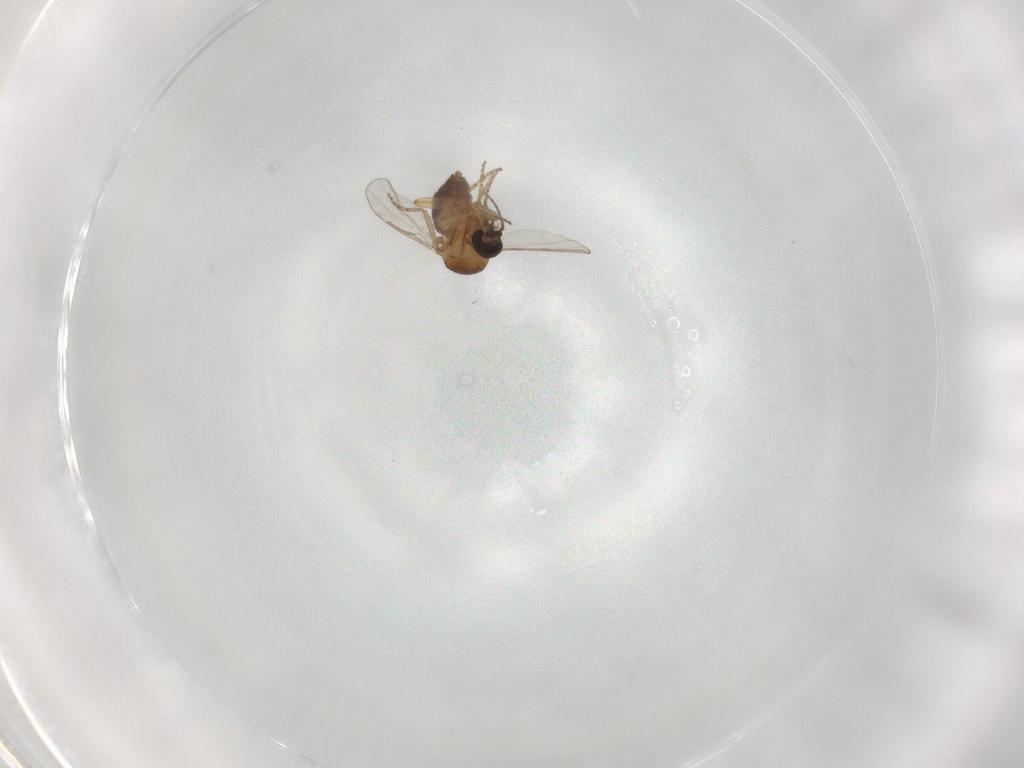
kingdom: Animalia
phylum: Arthropoda
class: Insecta
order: Diptera
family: Ceratopogonidae
